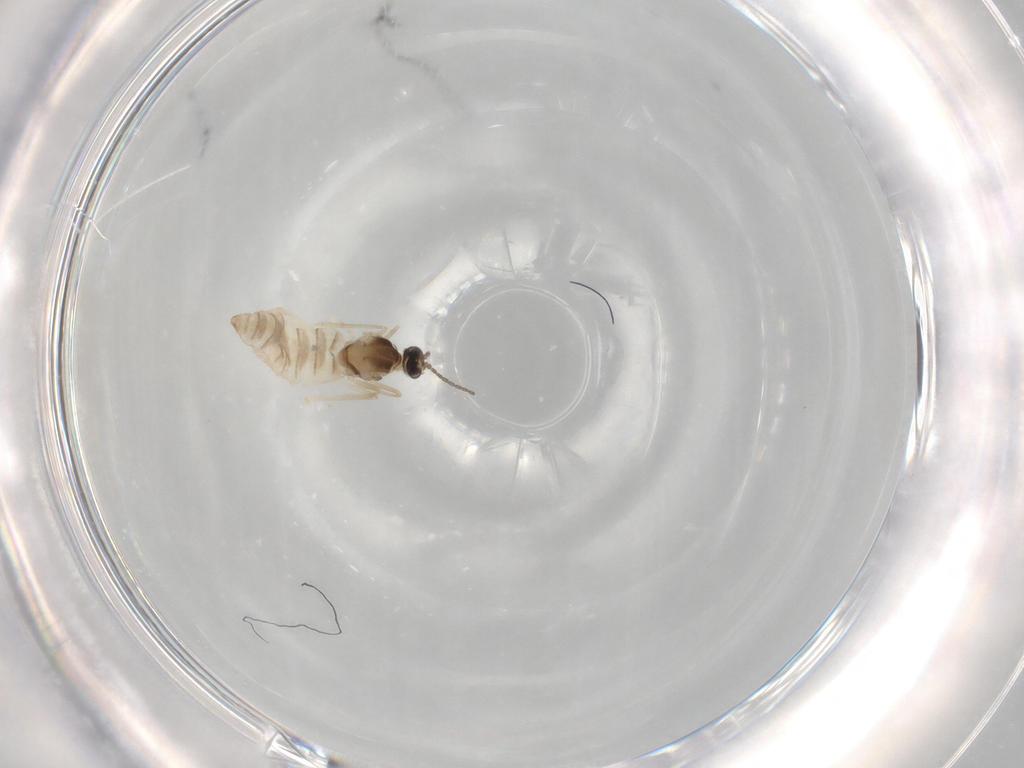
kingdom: Animalia
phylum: Arthropoda
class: Insecta
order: Diptera
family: Cecidomyiidae
